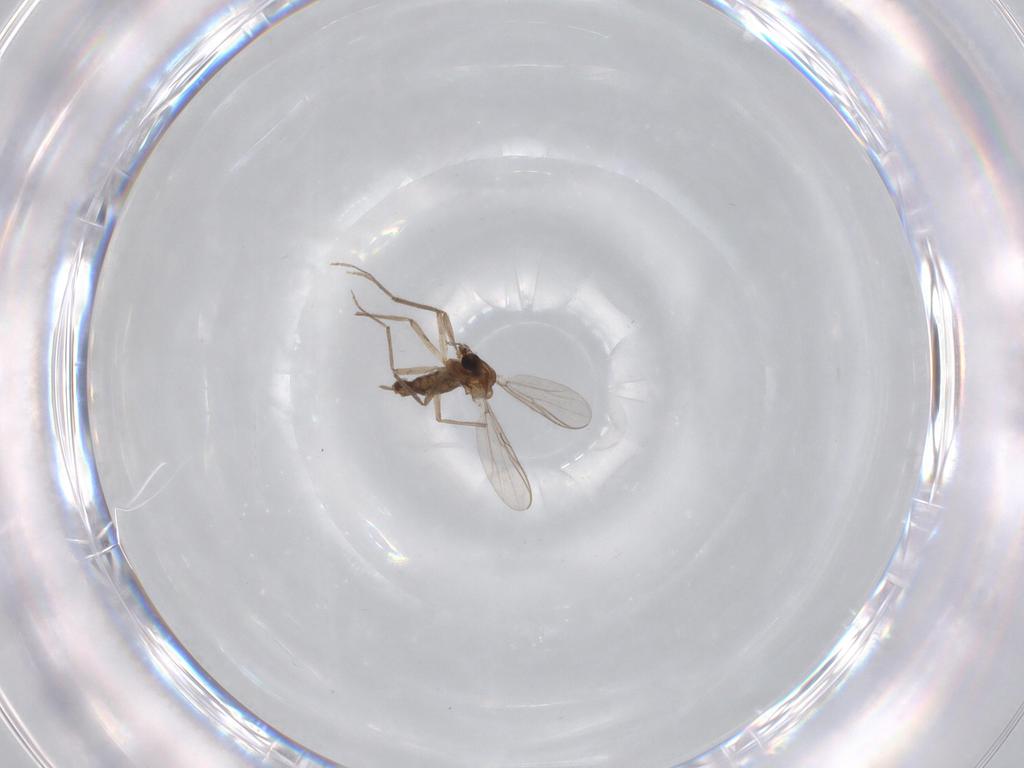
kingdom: Animalia
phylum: Arthropoda
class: Insecta
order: Diptera
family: Chironomidae
